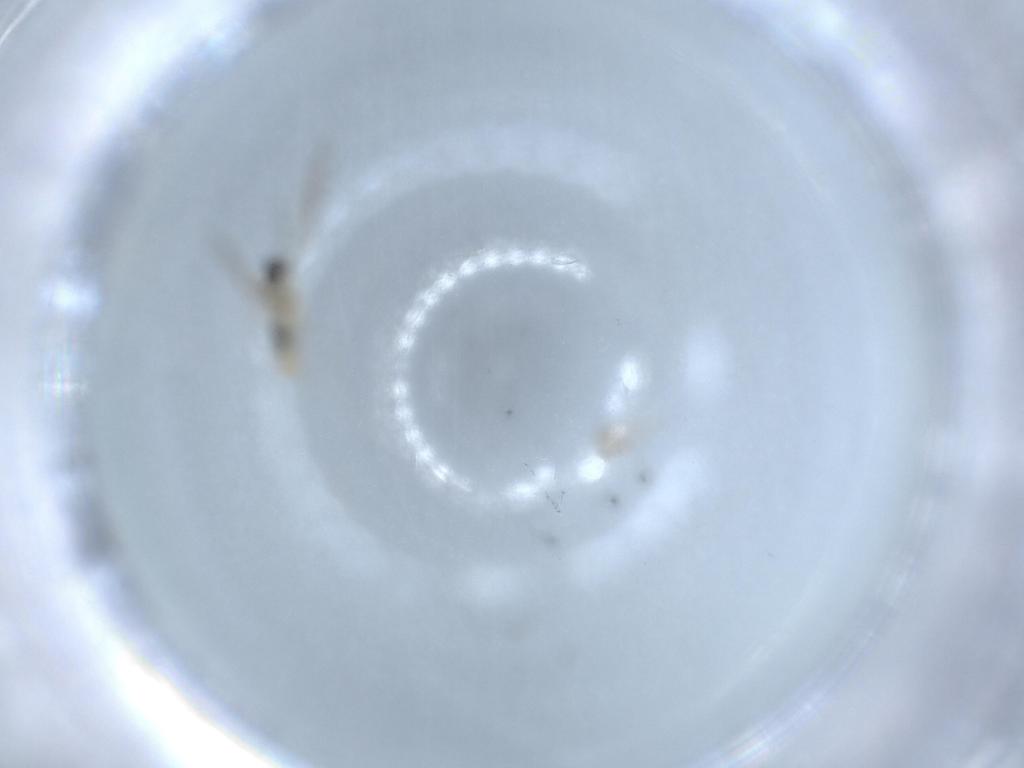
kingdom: Animalia
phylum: Arthropoda
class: Insecta
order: Diptera
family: Cecidomyiidae
